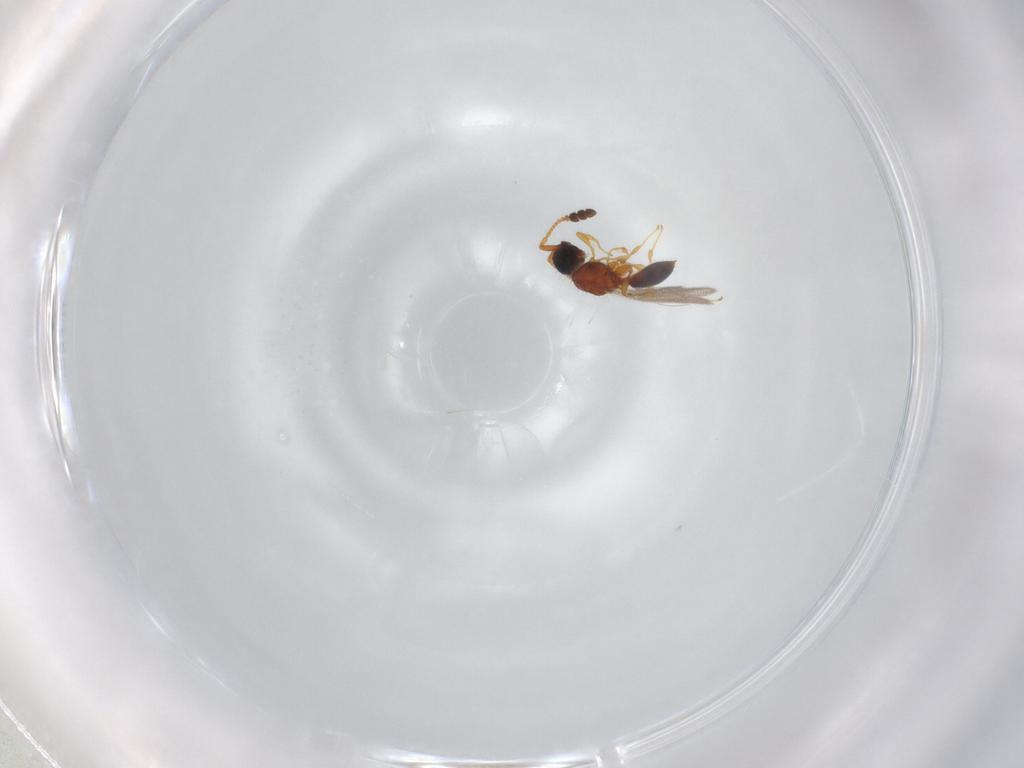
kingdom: Animalia
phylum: Arthropoda
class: Insecta
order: Hymenoptera
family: Diapriidae
